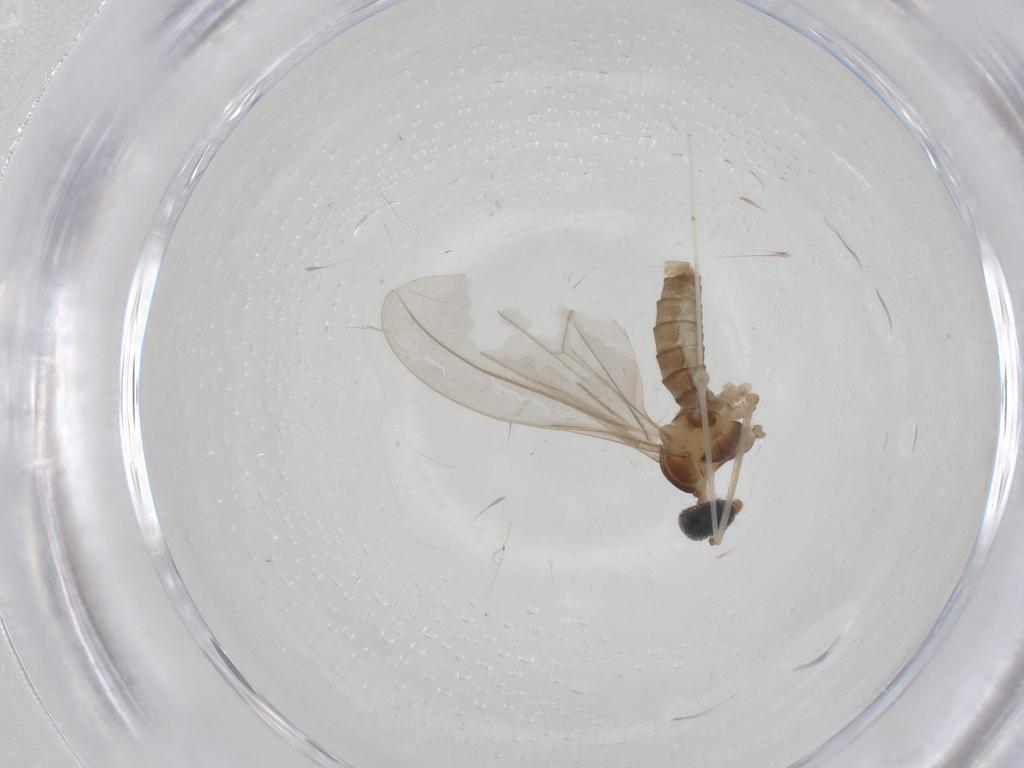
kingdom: Animalia
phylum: Arthropoda
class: Insecta
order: Diptera
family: Cecidomyiidae
